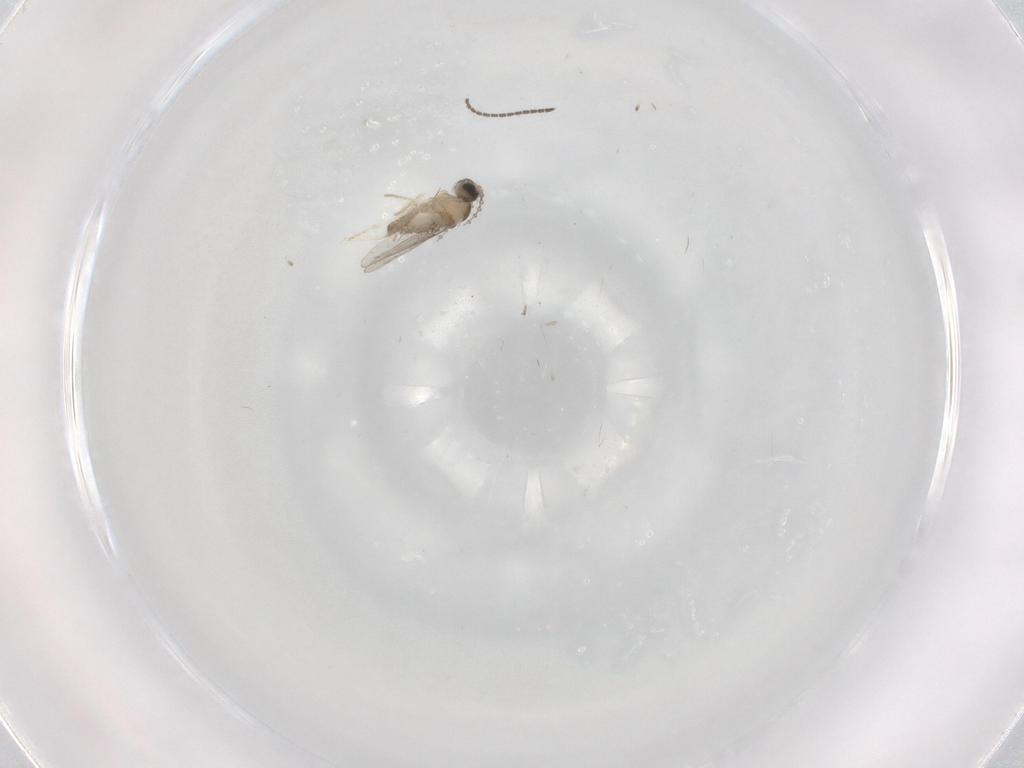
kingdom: Animalia
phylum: Arthropoda
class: Insecta
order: Diptera
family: Cecidomyiidae
